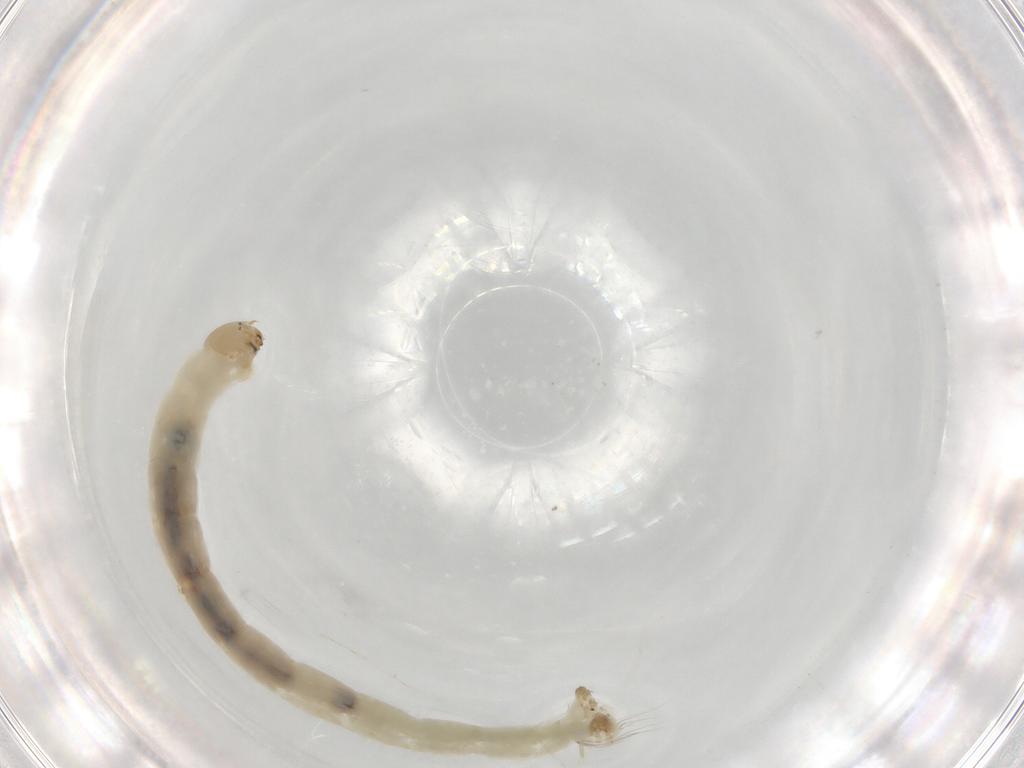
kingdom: Animalia
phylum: Arthropoda
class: Insecta
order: Diptera
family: Chironomidae
